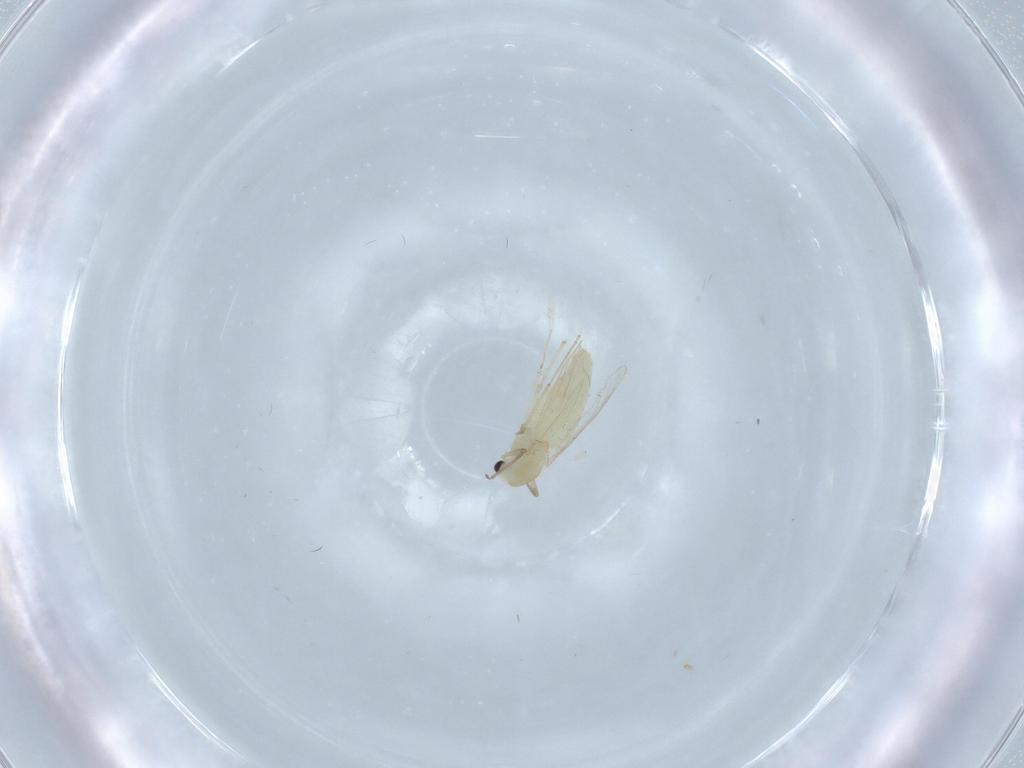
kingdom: Animalia
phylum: Arthropoda
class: Insecta
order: Diptera
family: Chironomidae
